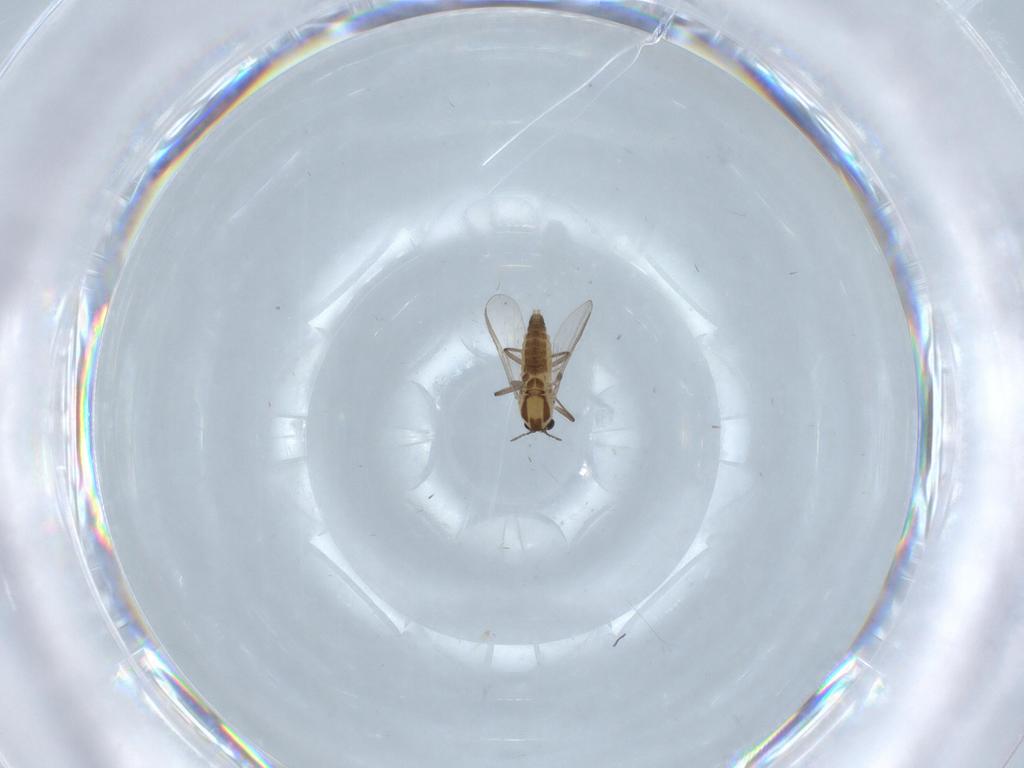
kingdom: Animalia
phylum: Arthropoda
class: Insecta
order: Diptera
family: Chironomidae
